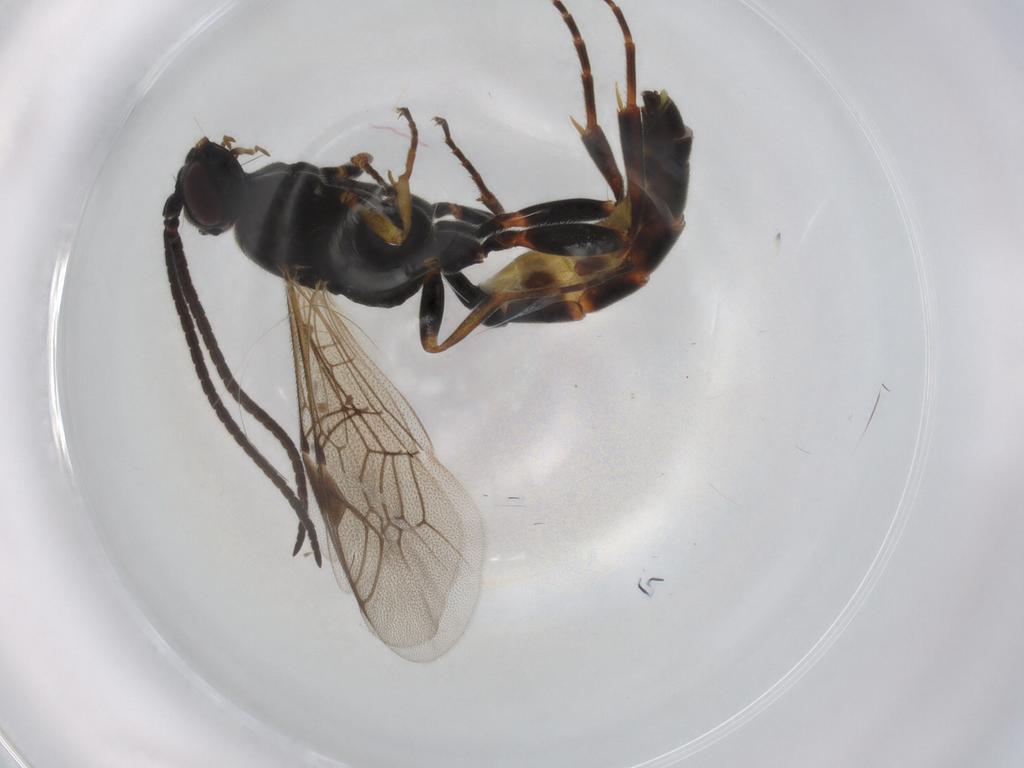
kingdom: Animalia
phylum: Arthropoda
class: Insecta
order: Hymenoptera
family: Ichneumonidae
